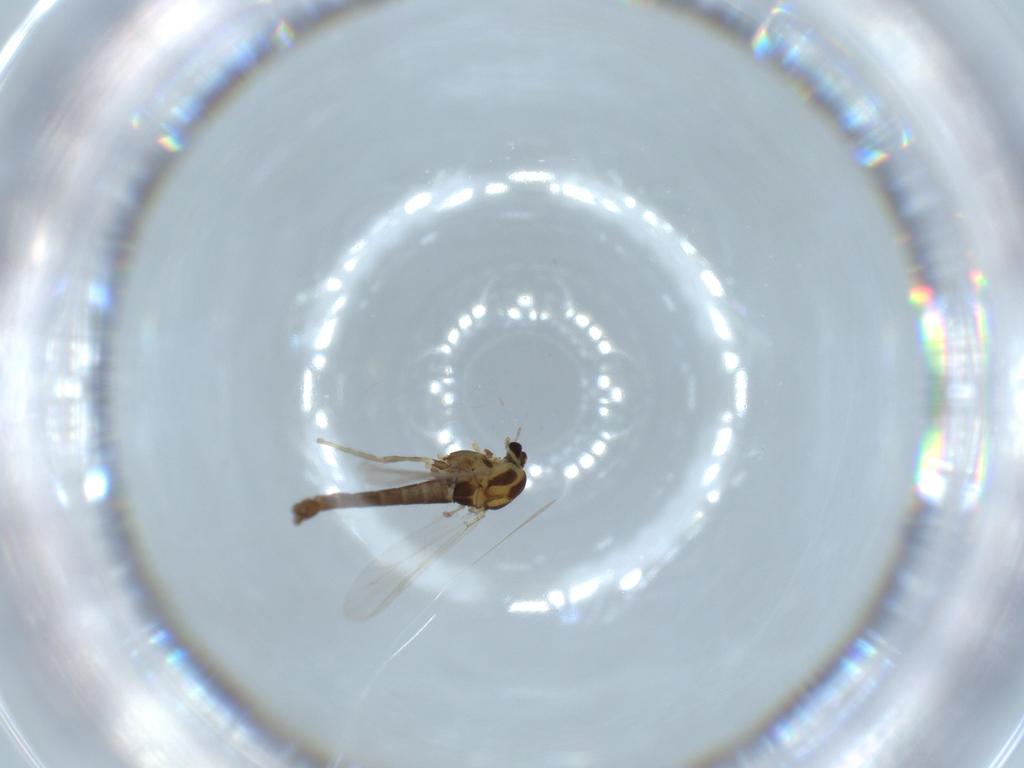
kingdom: Animalia
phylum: Arthropoda
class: Insecta
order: Diptera
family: Chironomidae
